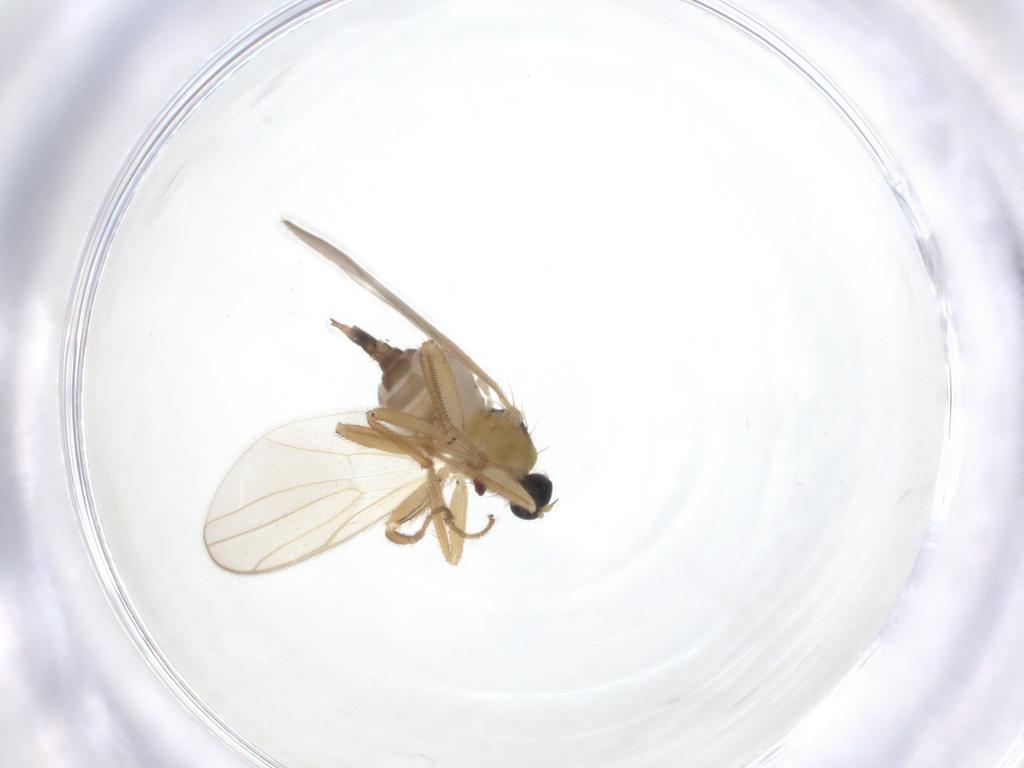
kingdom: Animalia
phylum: Arthropoda
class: Insecta
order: Diptera
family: Hybotidae
